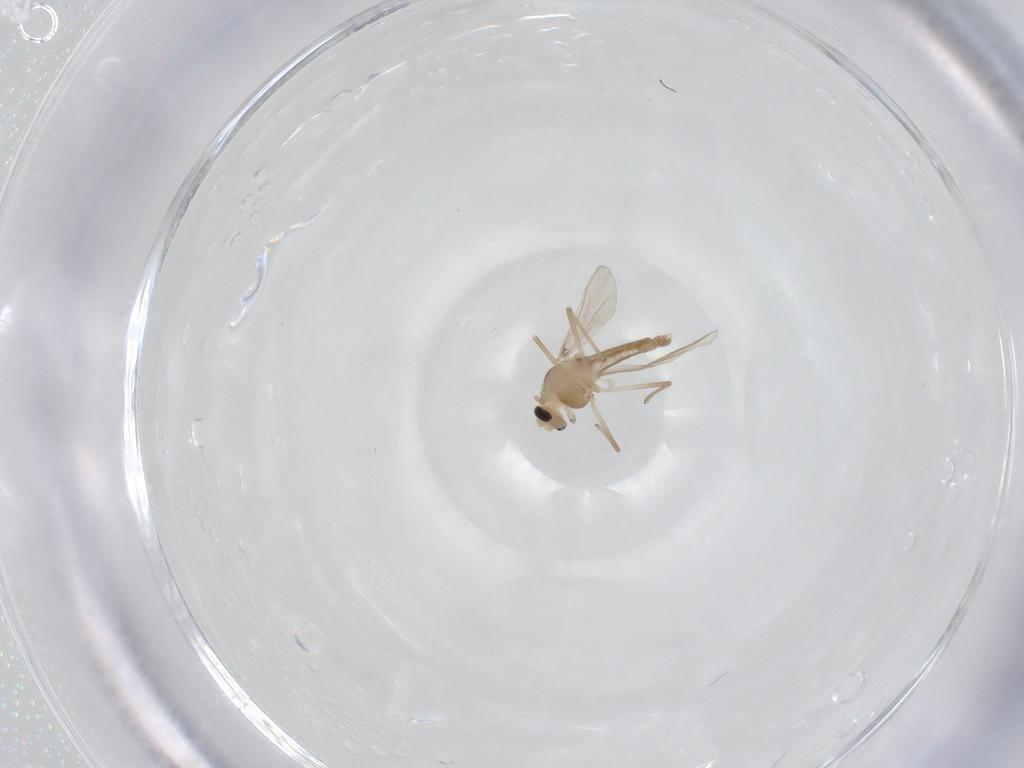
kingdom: Animalia
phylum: Arthropoda
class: Insecta
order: Diptera
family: Chironomidae
